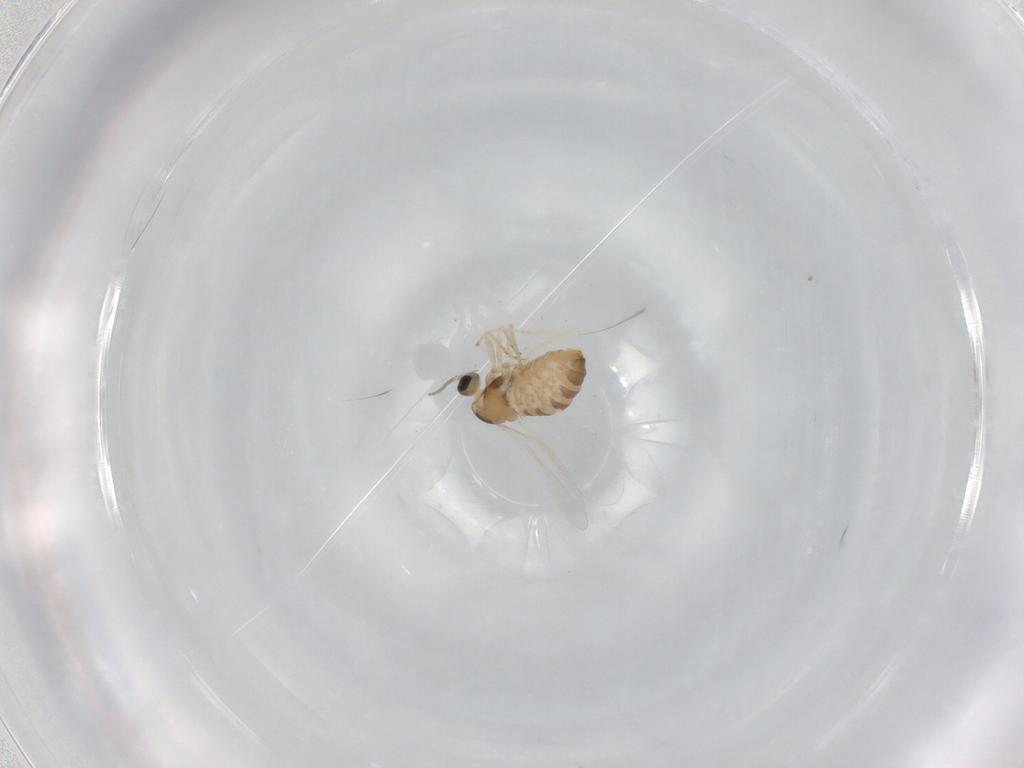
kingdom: Animalia
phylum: Arthropoda
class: Insecta
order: Diptera
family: Cecidomyiidae
